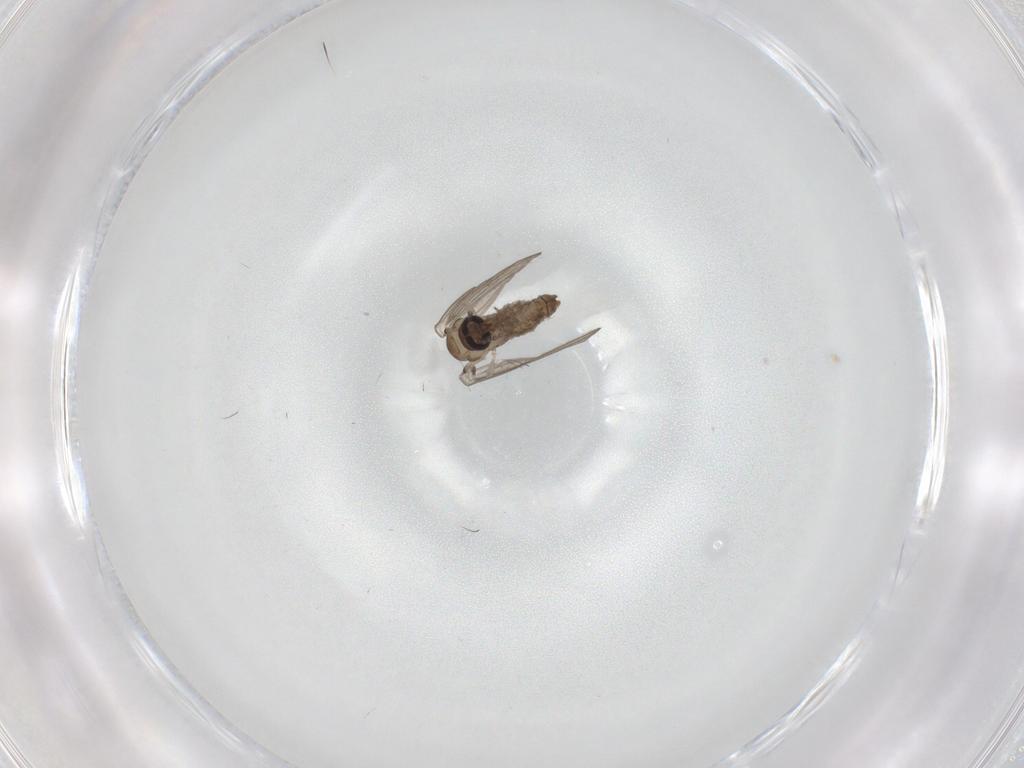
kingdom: Animalia
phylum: Arthropoda
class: Insecta
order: Diptera
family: Psychodidae
